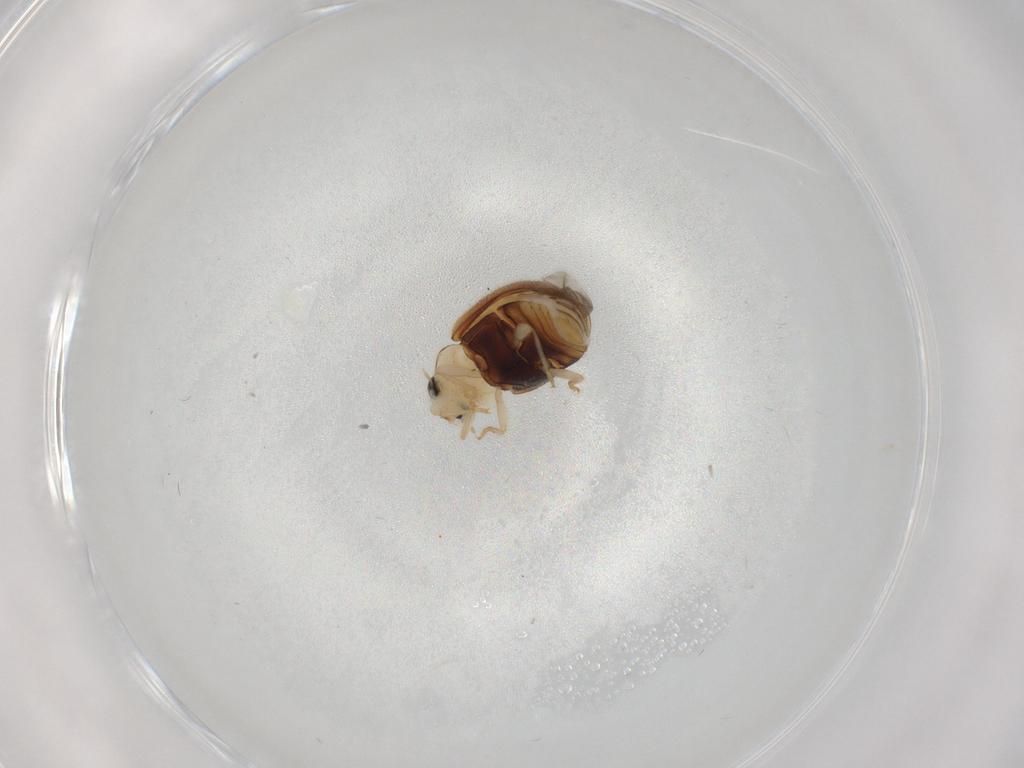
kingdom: Animalia
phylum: Arthropoda
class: Insecta
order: Coleoptera
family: Coccinellidae
